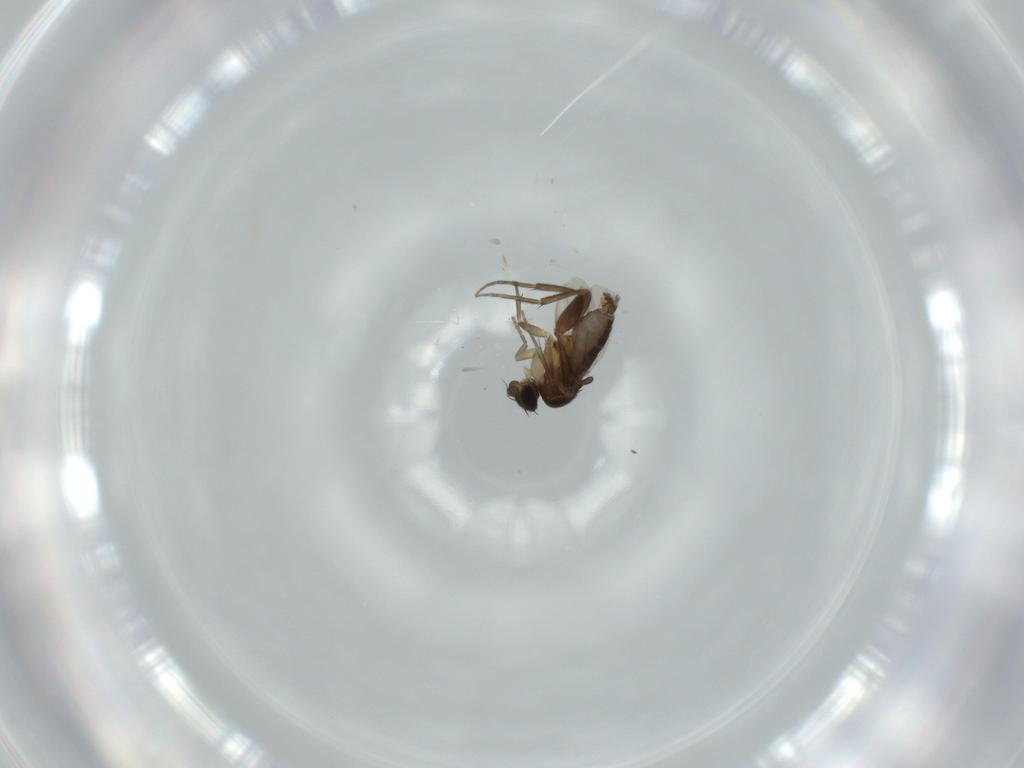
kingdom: Animalia
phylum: Arthropoda
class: Insecta
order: Diptera
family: Phoridae
